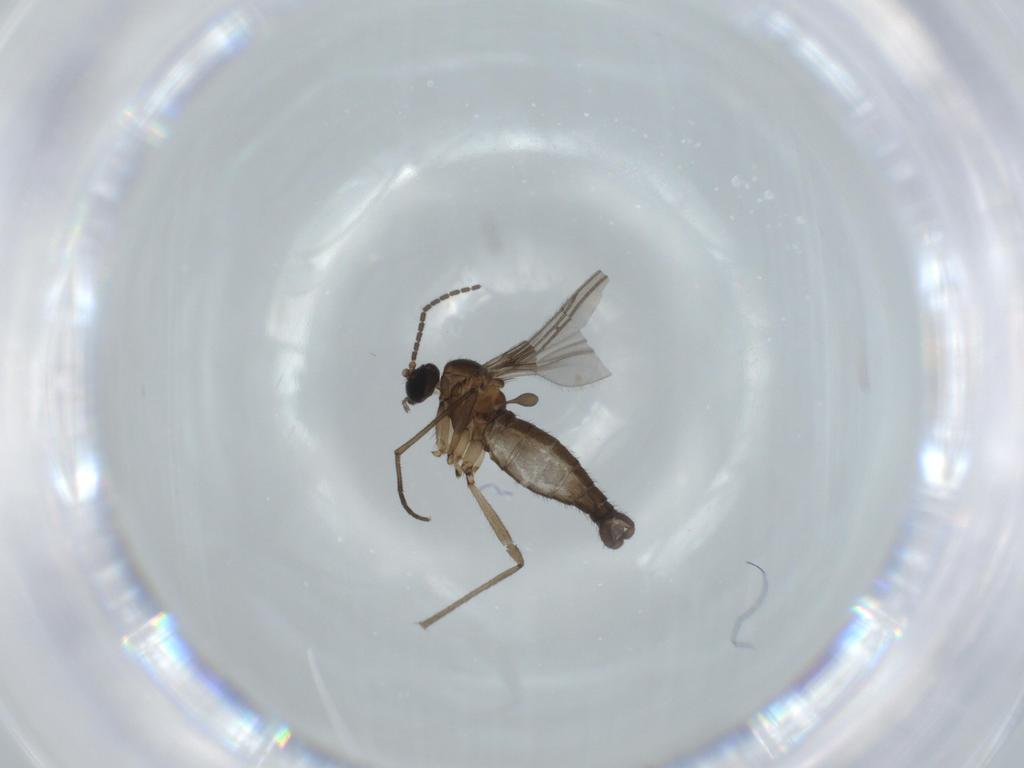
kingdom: Animalia
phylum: Arthropoda
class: Insecta
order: Diptera
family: Sciaridae
